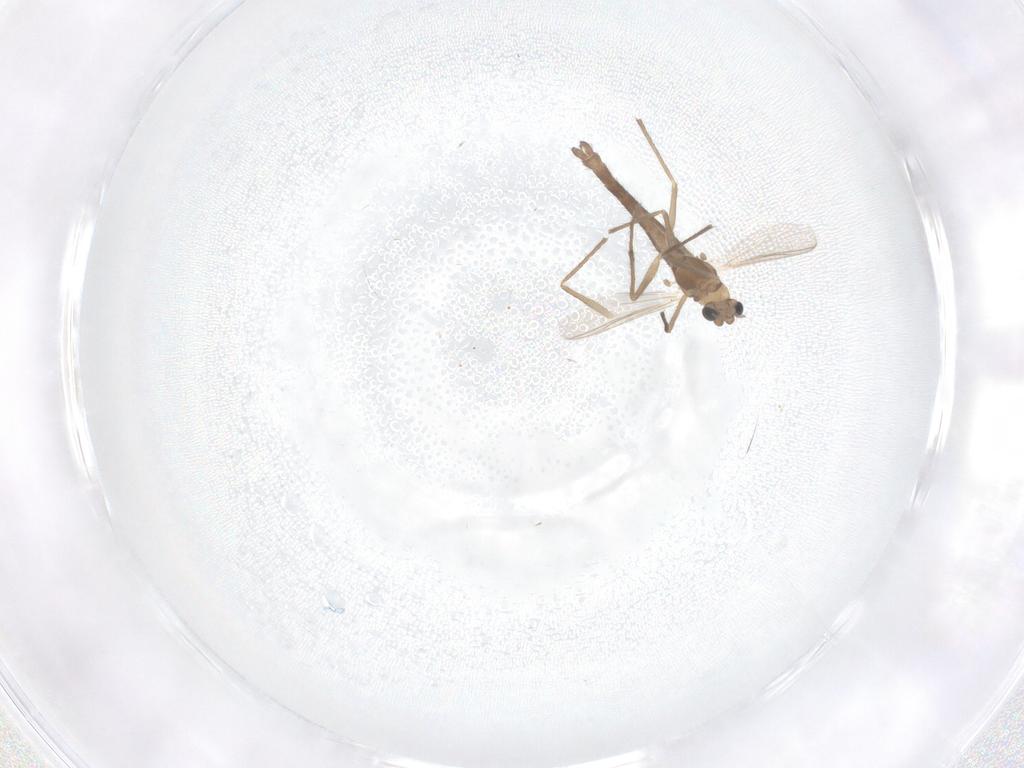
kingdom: Animalia
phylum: Arthropoda
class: Insecta
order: Diptera
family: Chironomidae
